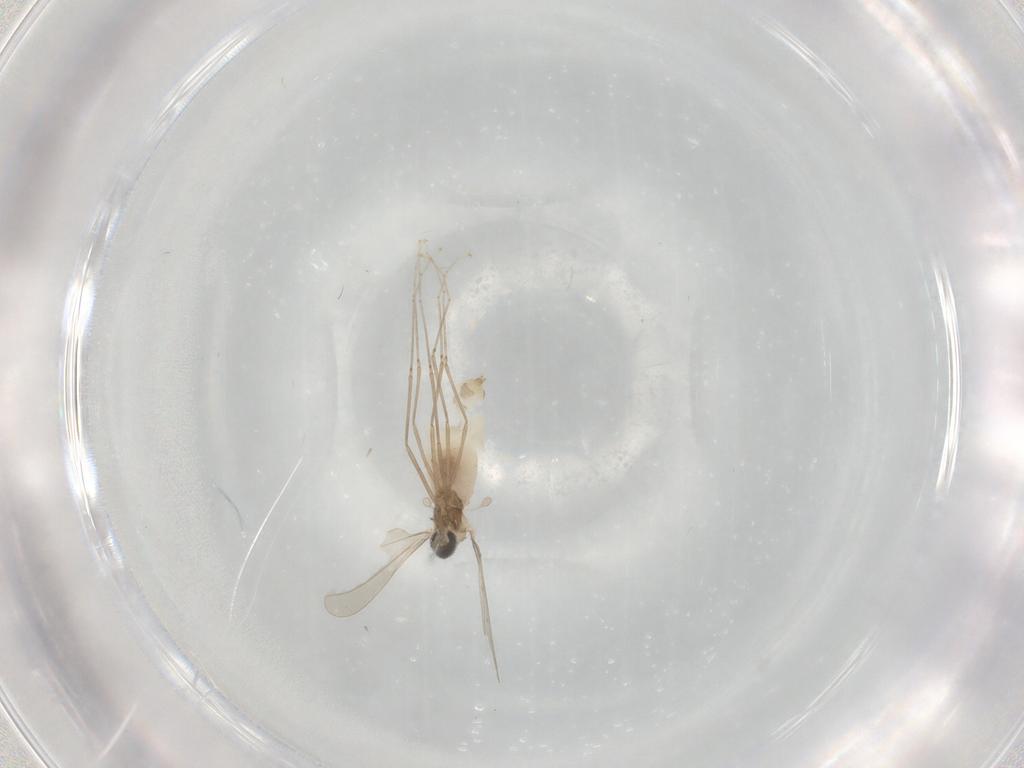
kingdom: Animalia
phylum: Arthropoda
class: Insecta
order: Diptera
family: Cecidomyiidae
